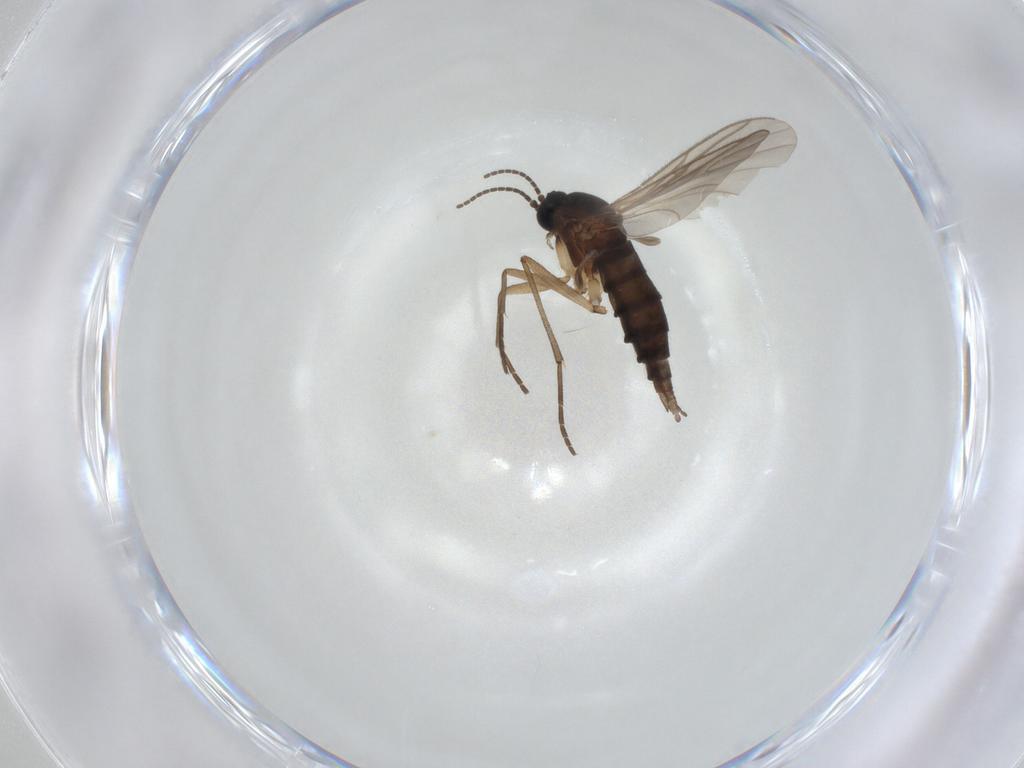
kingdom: Animalia
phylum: Arthropoda
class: Insecta
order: Diptera
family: Sciaridae
